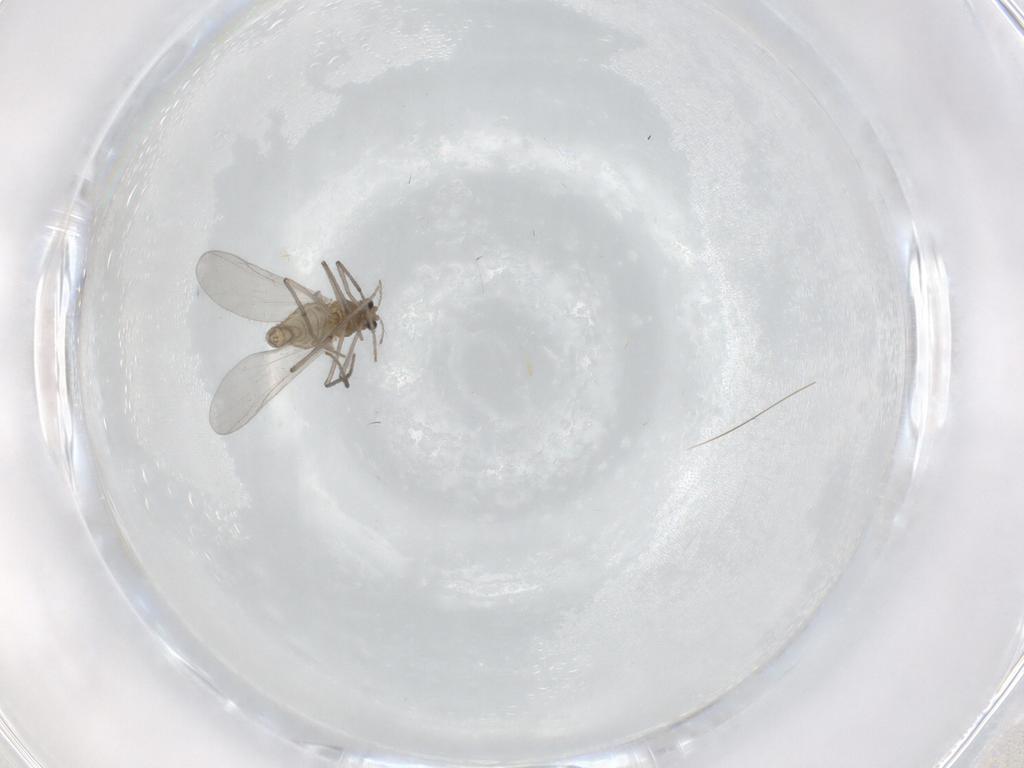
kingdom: Animalia
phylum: Arthropoda
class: Insecta
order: Diptera
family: Chironomidae
